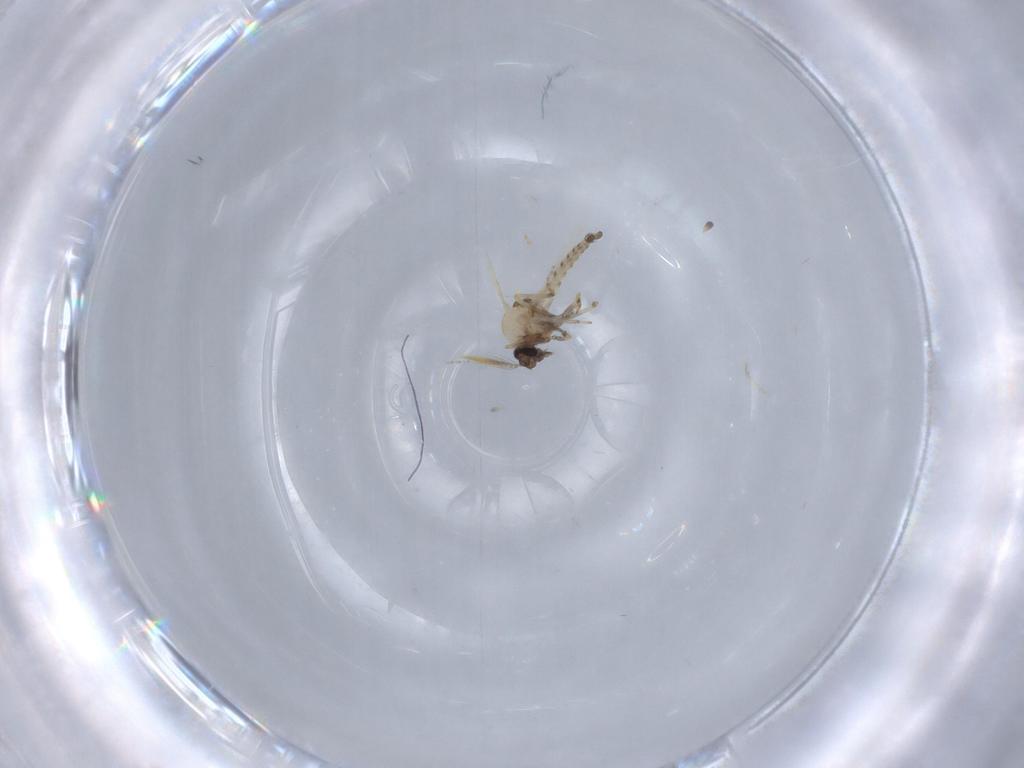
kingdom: Animalia
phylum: Arthropoda
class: Insecta
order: Diptera
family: Ceratopogonidae
